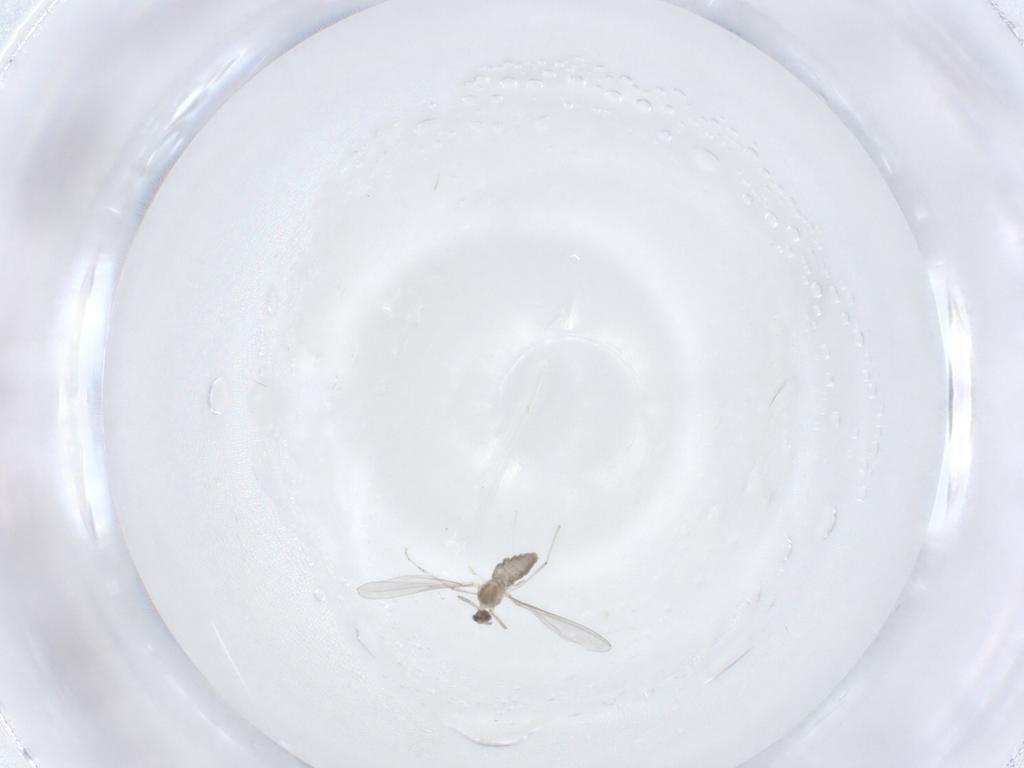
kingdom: Animalia
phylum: Arthropoda
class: Insecta
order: Diptera
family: Cecidomyiidae
